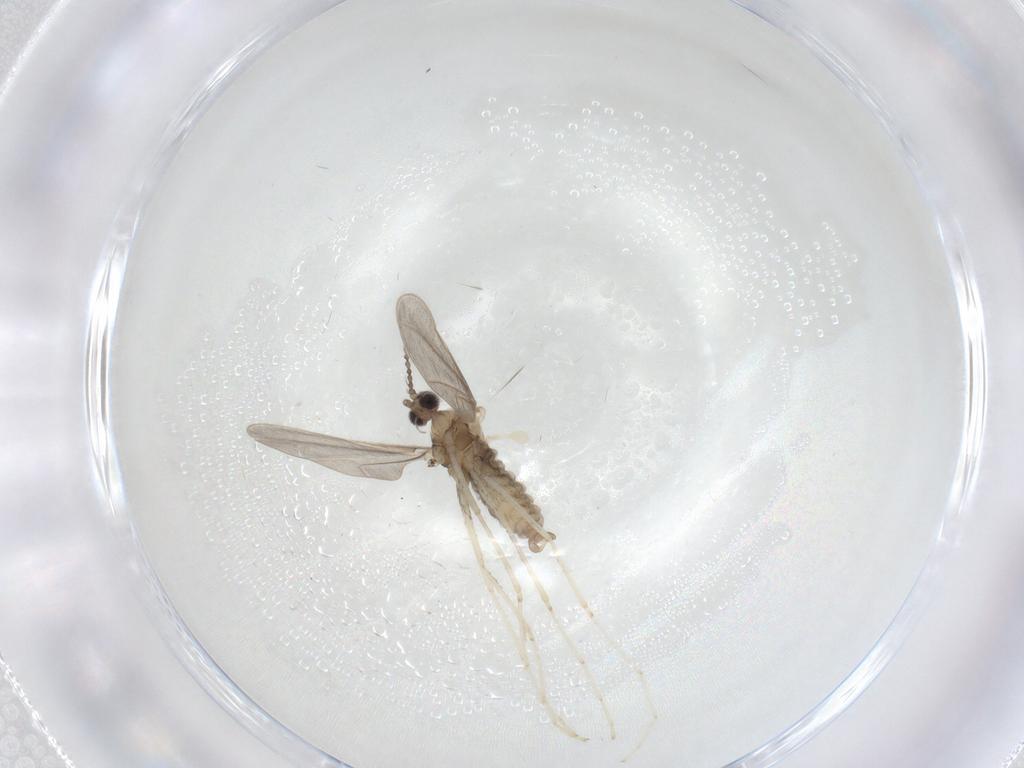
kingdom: Animalia
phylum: Arthropoda
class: Insecta
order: Diptera
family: Cecidomyiidae
